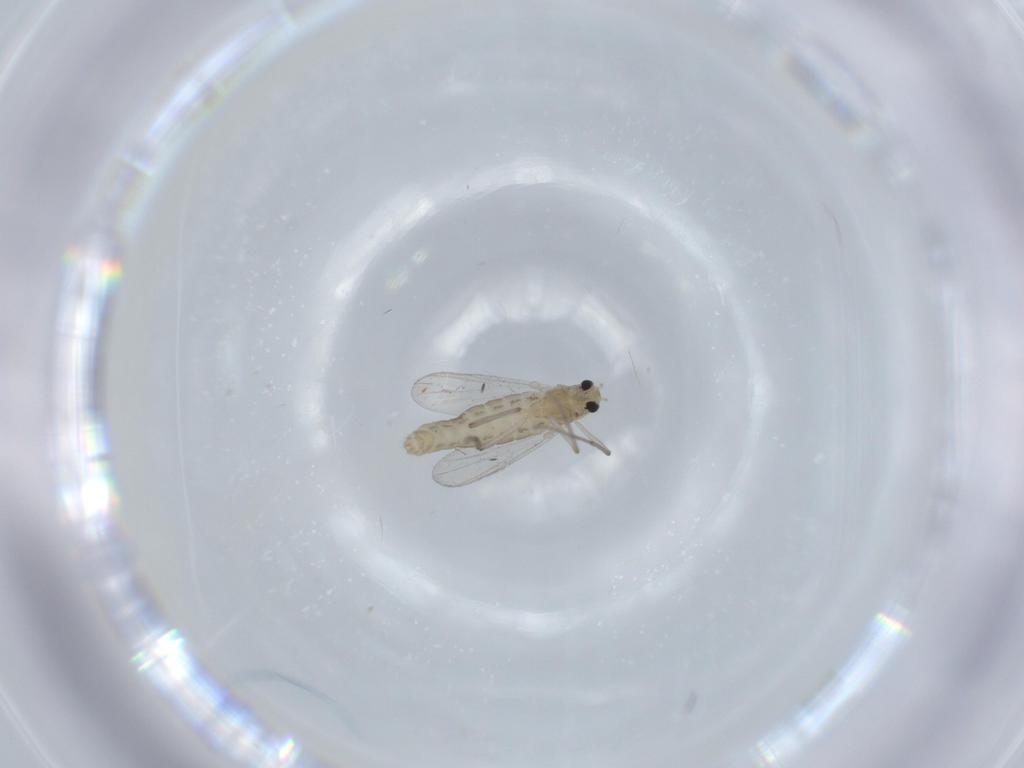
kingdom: Animalia
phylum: Arthropoda
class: Insecta
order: Diptera
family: Chironomidae
